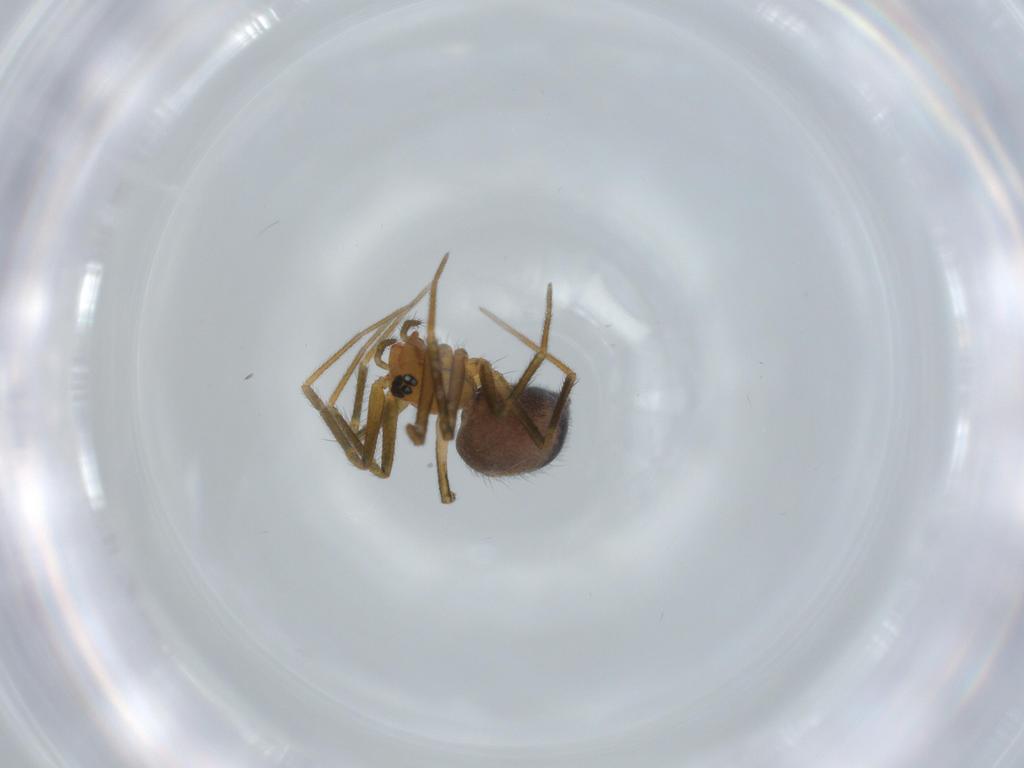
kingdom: Animalia
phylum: Arthropoda
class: Arachnida
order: Araneae
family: Linyphiidae
